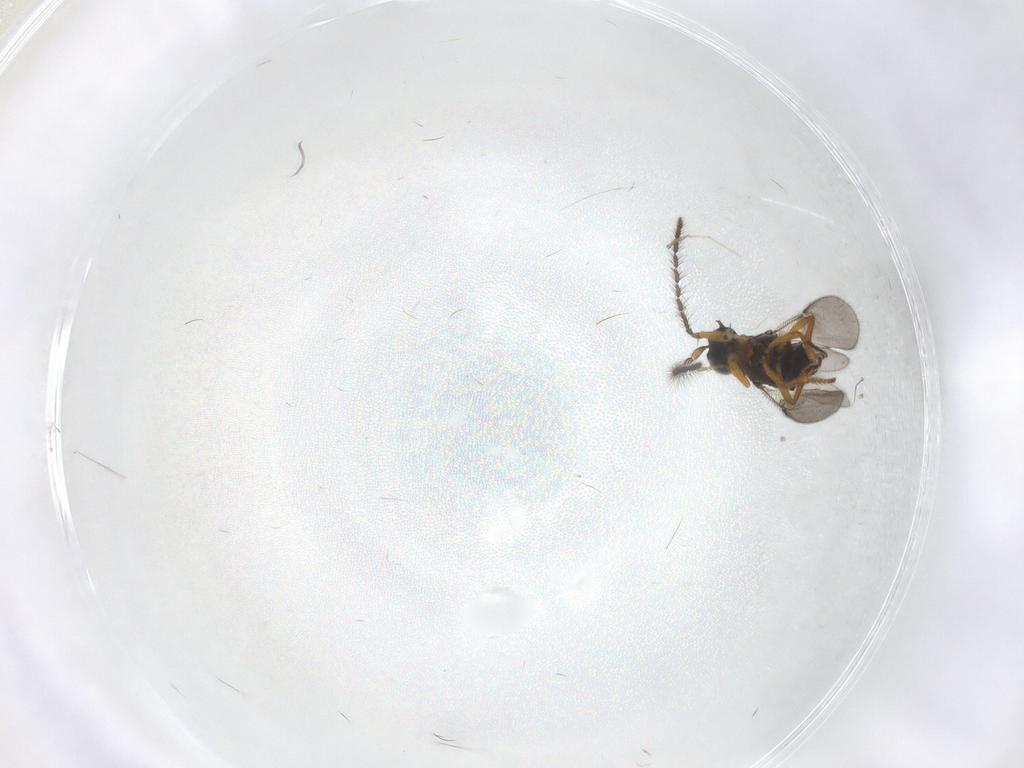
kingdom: Animalia
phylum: Arthropoda
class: Insecta
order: Hymenoptera
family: Encyrtidae
